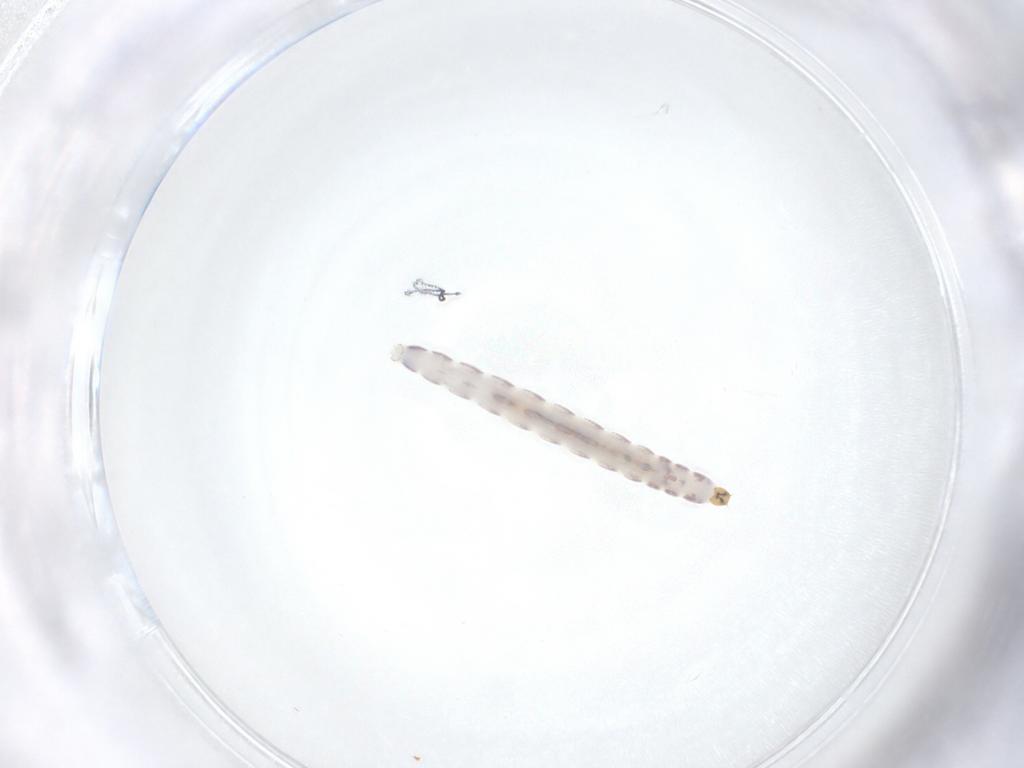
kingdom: Animalia
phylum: Arthropoda
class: Insecta
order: Diptera
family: Chironomidae
